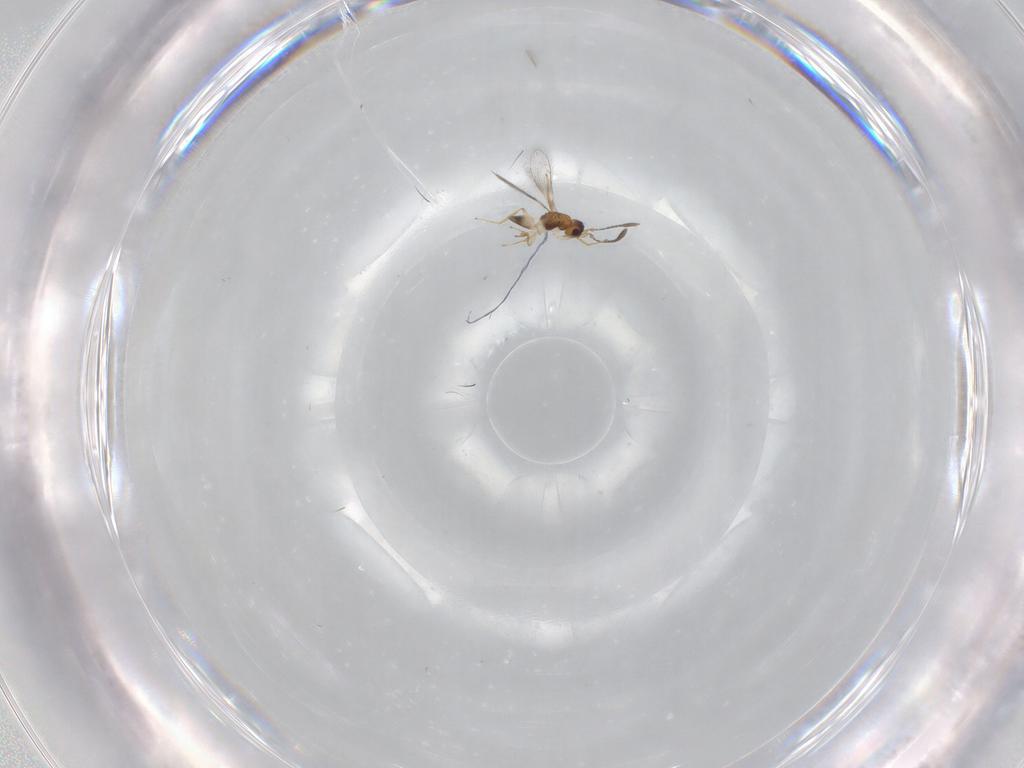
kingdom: Animalia
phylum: Arthropoda
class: Insecta
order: Hymenoptera
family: Mymaridae
